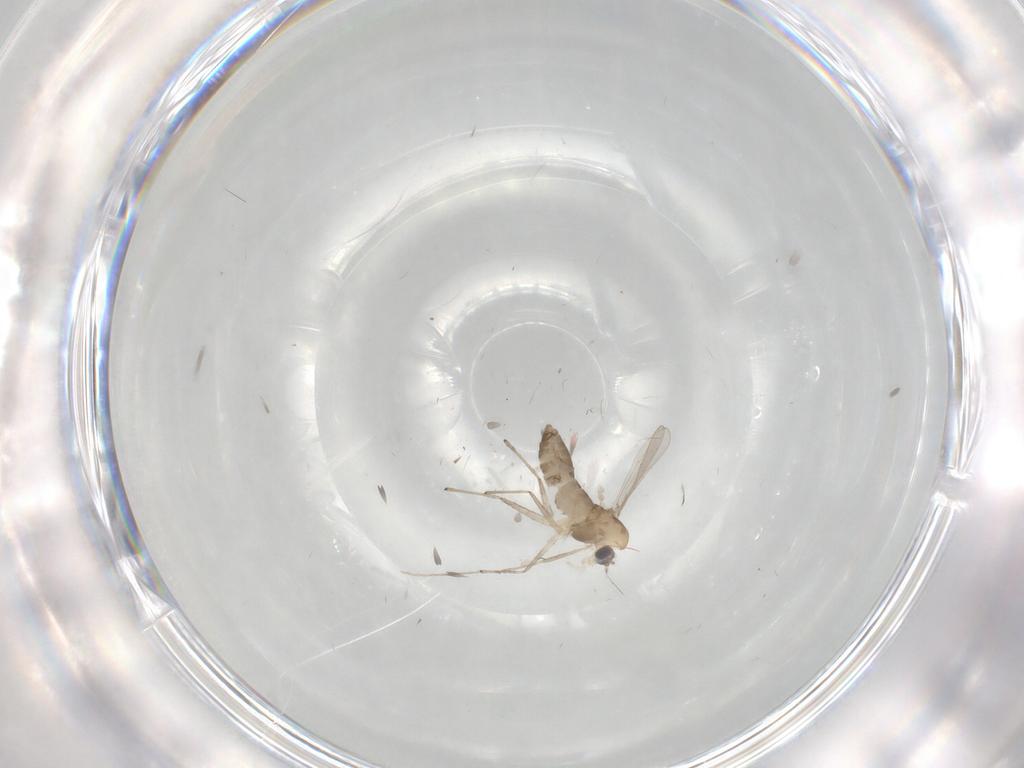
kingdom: Animalia
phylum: Arthropoda
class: Insecta
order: Diptera
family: Chironomidae
